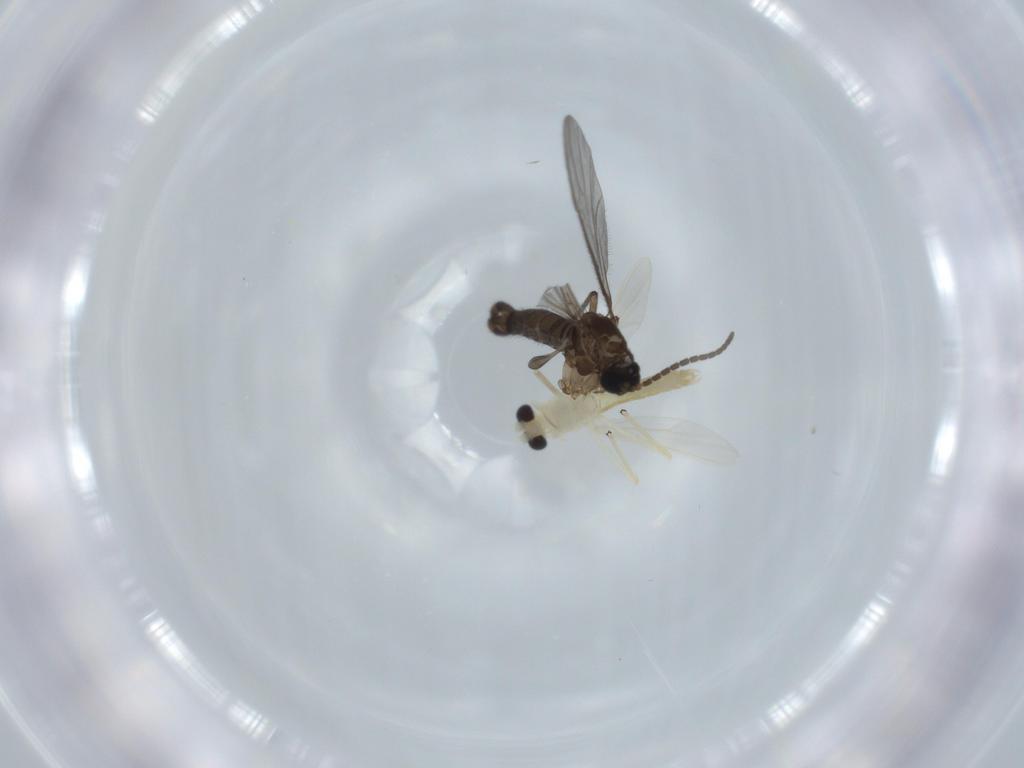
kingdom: Animalia
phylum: Arthropoda
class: Insecta
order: Diptera
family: Chironomidae
